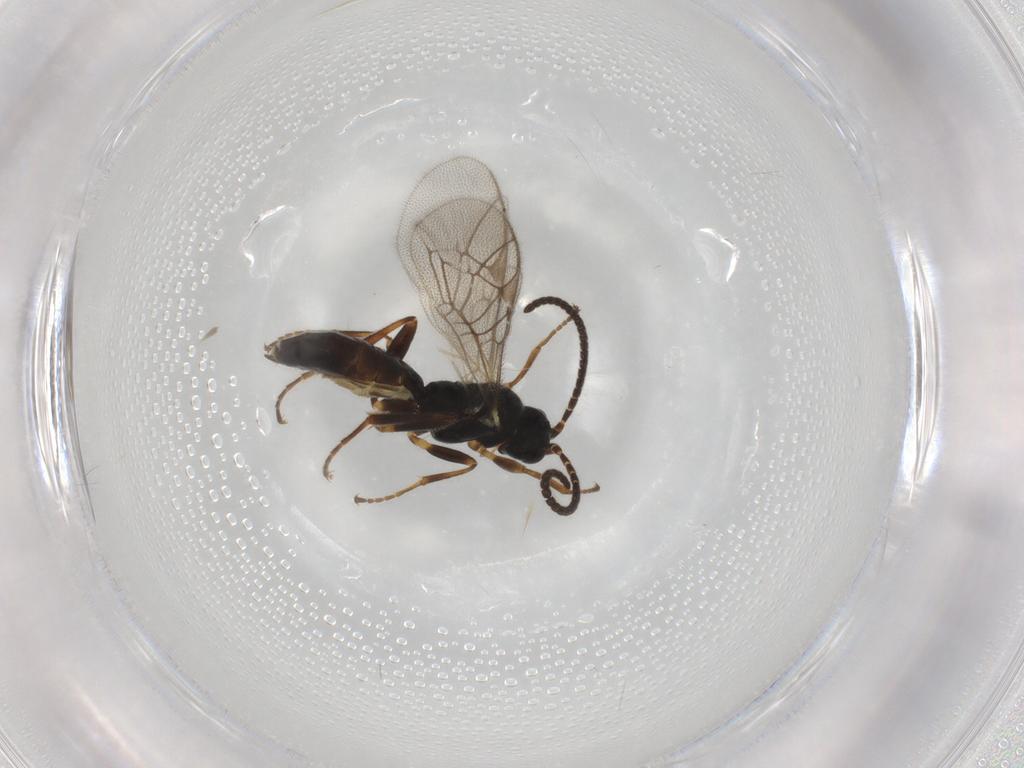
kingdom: Animalia
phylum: Arthropoda
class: Insecta
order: Hymenoptera
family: Ichneumonidae
